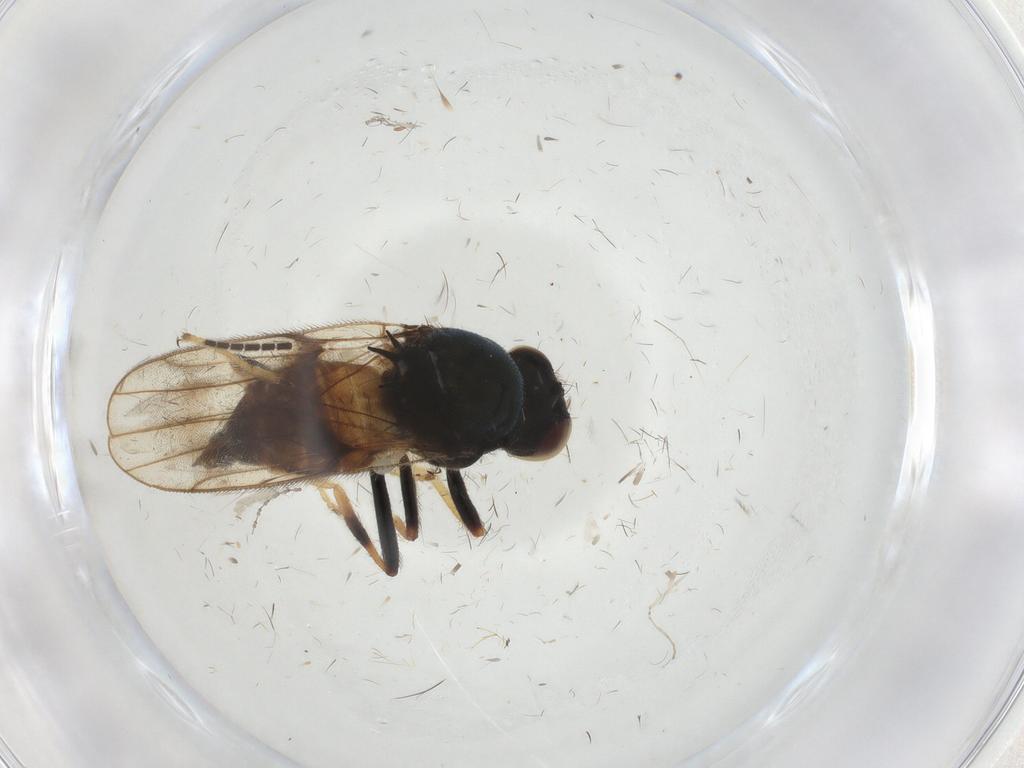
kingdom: Animalia
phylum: Arthropoda
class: Insecta
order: Diptera
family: Chloropidae
